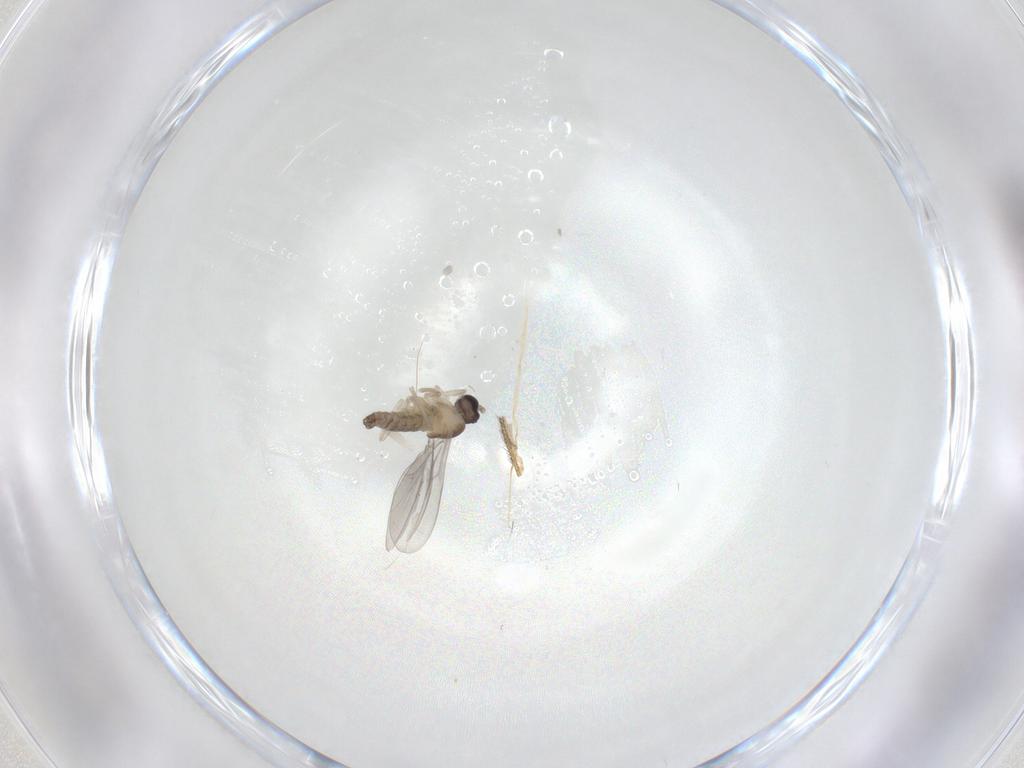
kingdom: Animalia
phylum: Arthropoda
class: Insecta
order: Diptera
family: Cecidomyiidae
